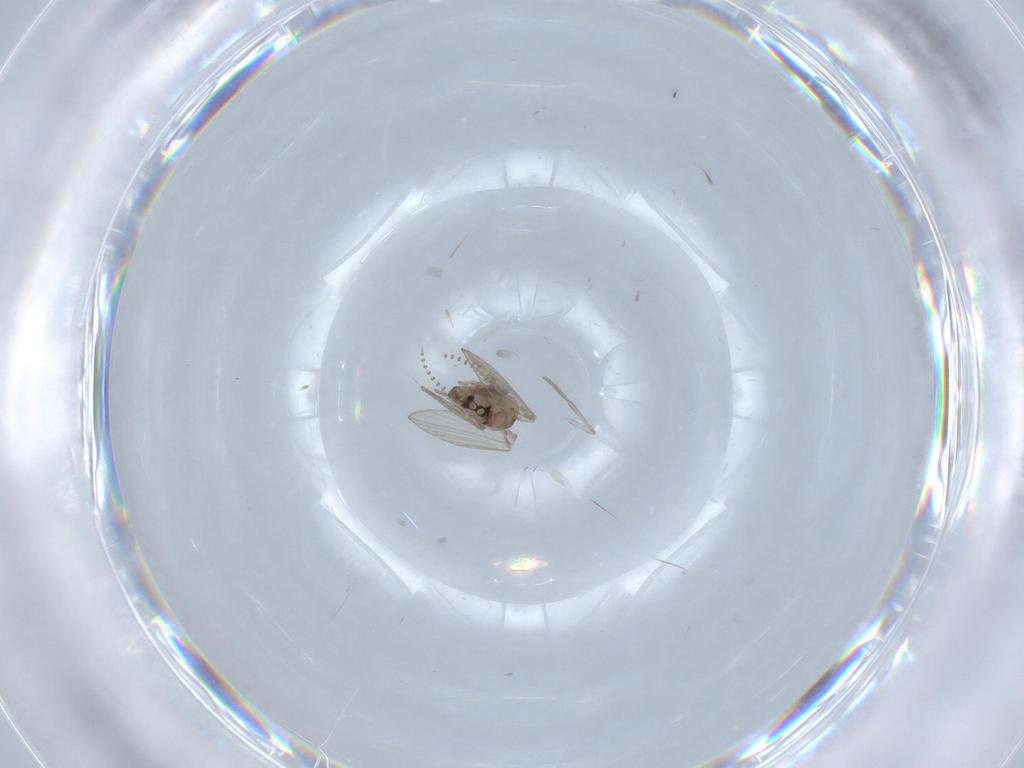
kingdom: Animalia
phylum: Arthropoda
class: Insecta
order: Diptera
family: Psychodidae
